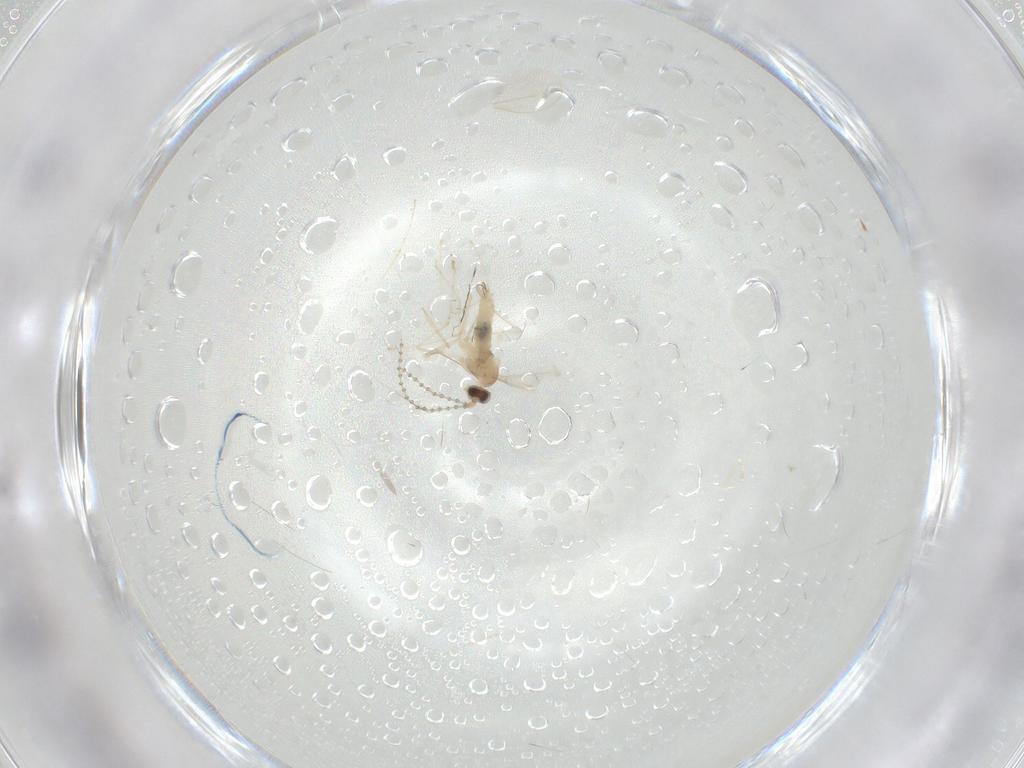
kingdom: Animalia
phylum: Arthropoda
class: Insecta
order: Diptera
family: Cecidomyiidae
